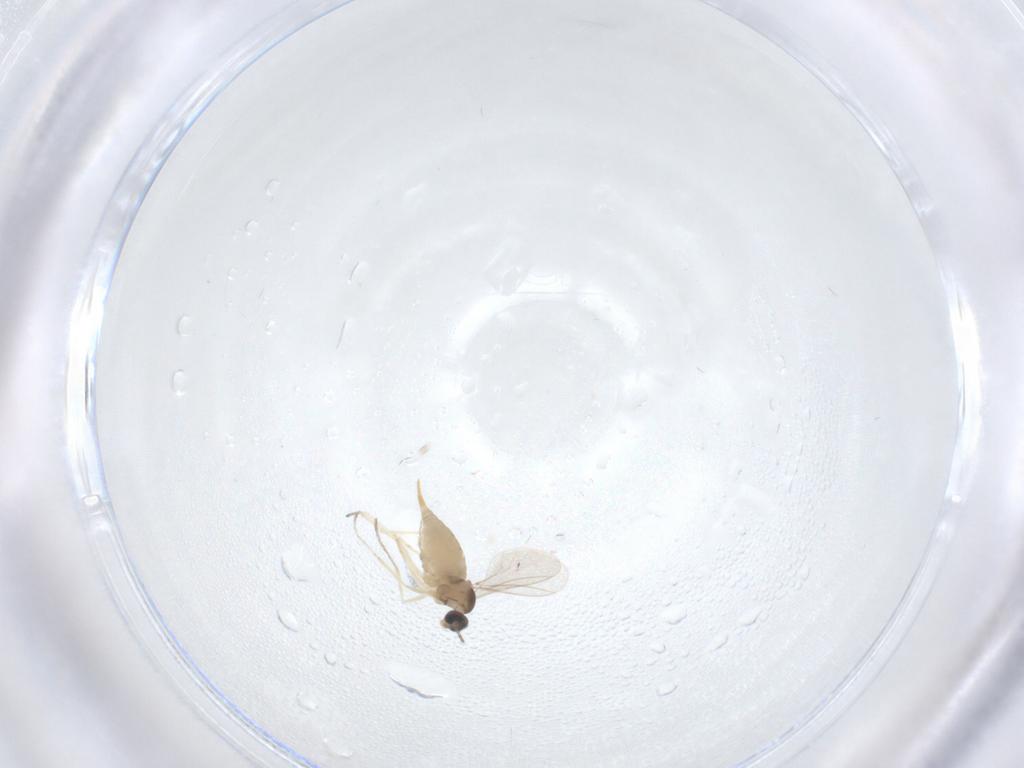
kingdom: Animalia
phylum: Arthropoda
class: Insecta
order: Diptera
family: Cecidomyiidae
